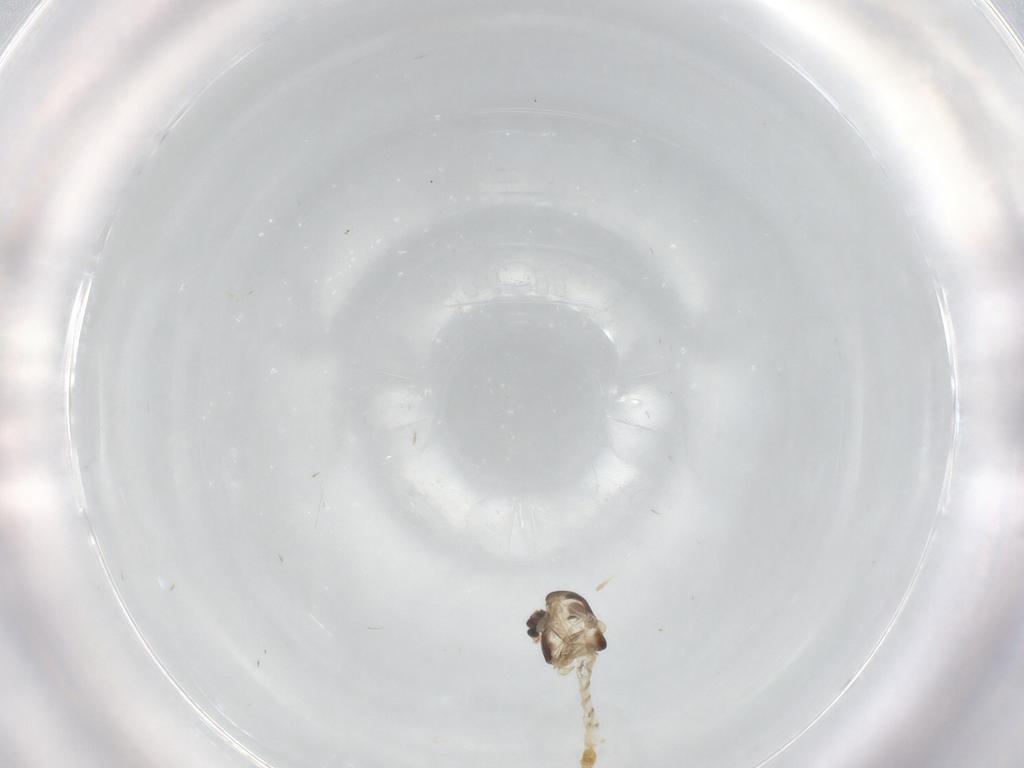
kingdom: Animalia
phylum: Arthropoda
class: Insecta
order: Diptera
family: Chironomidae
